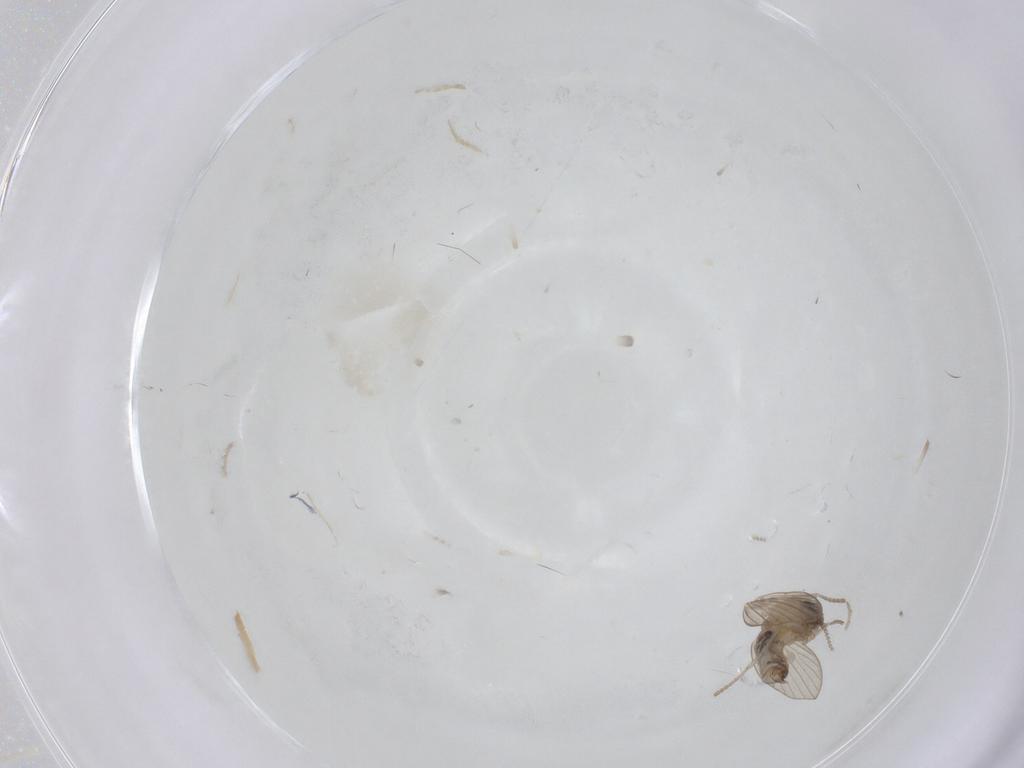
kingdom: Animalia
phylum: Arthropoda
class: Insecta
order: Diptera
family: Psychodidae
